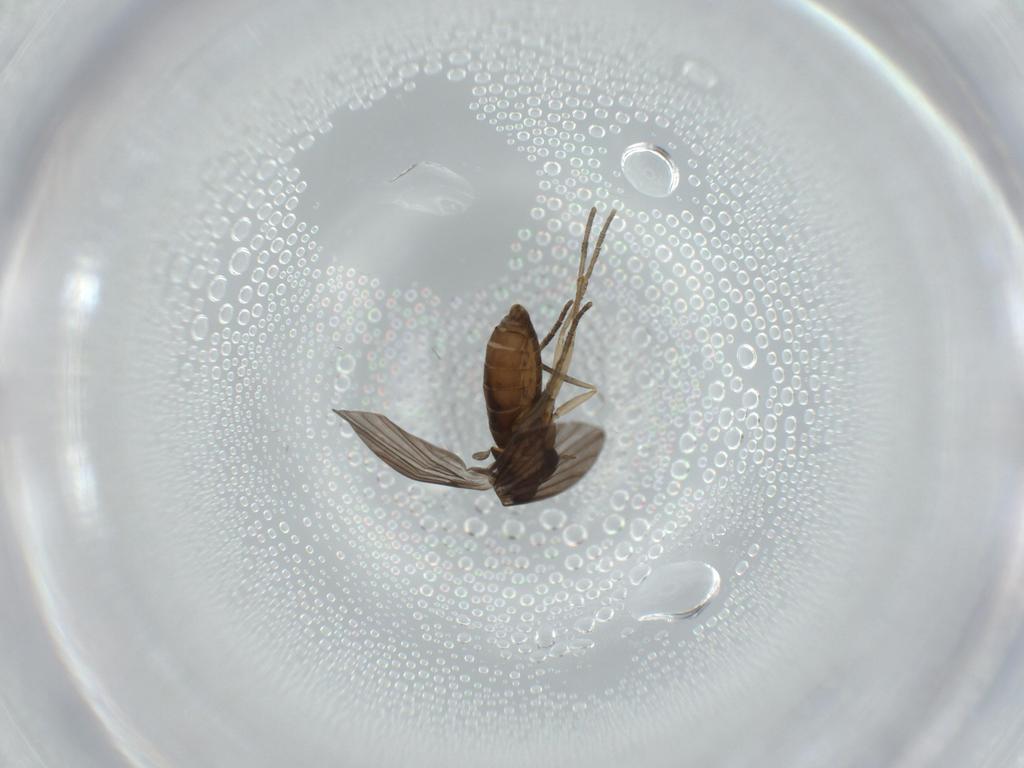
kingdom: Animalia
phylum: Arthropoda
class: Insecta
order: Diptera
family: Psychodidae
